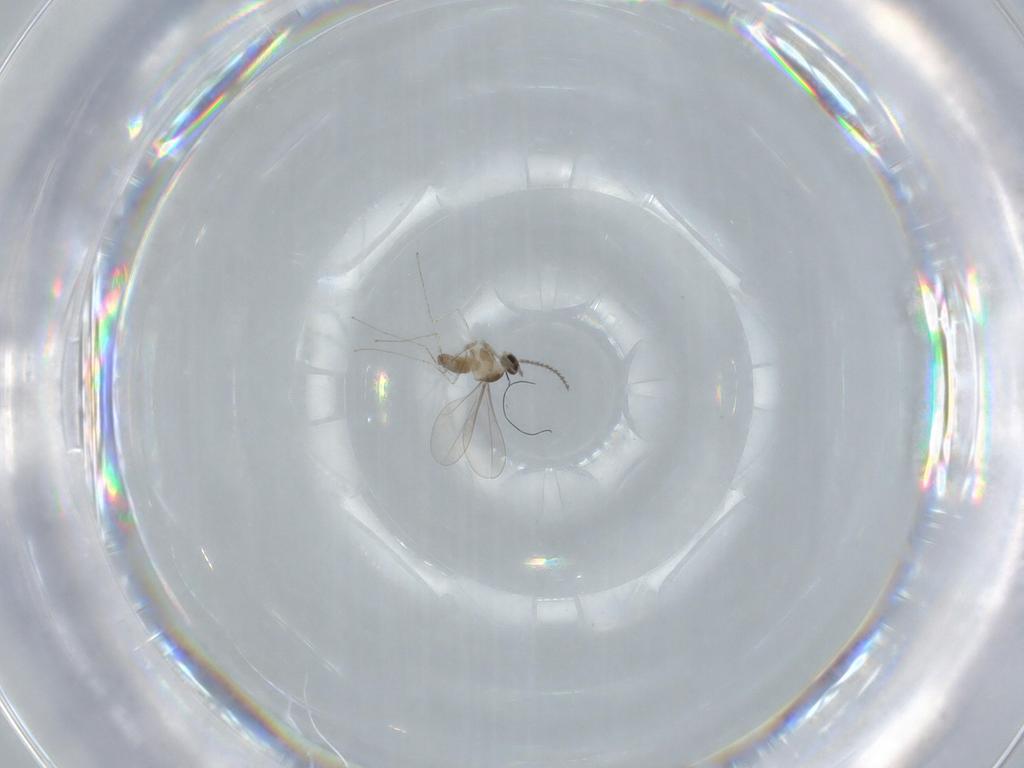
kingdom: Animalia
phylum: Arthropoda
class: Insecta
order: Diptera
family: Cecidomyiidae
